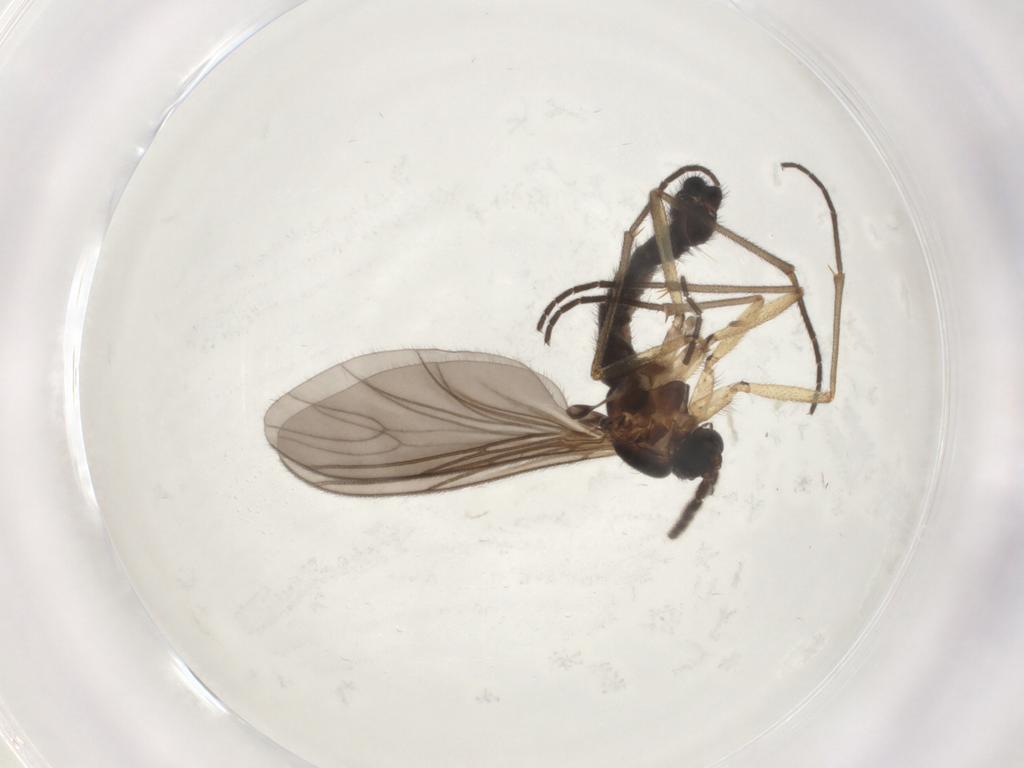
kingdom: Animalia
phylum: Arthropoda
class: Insecta
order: Diptera
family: Sciaridae
